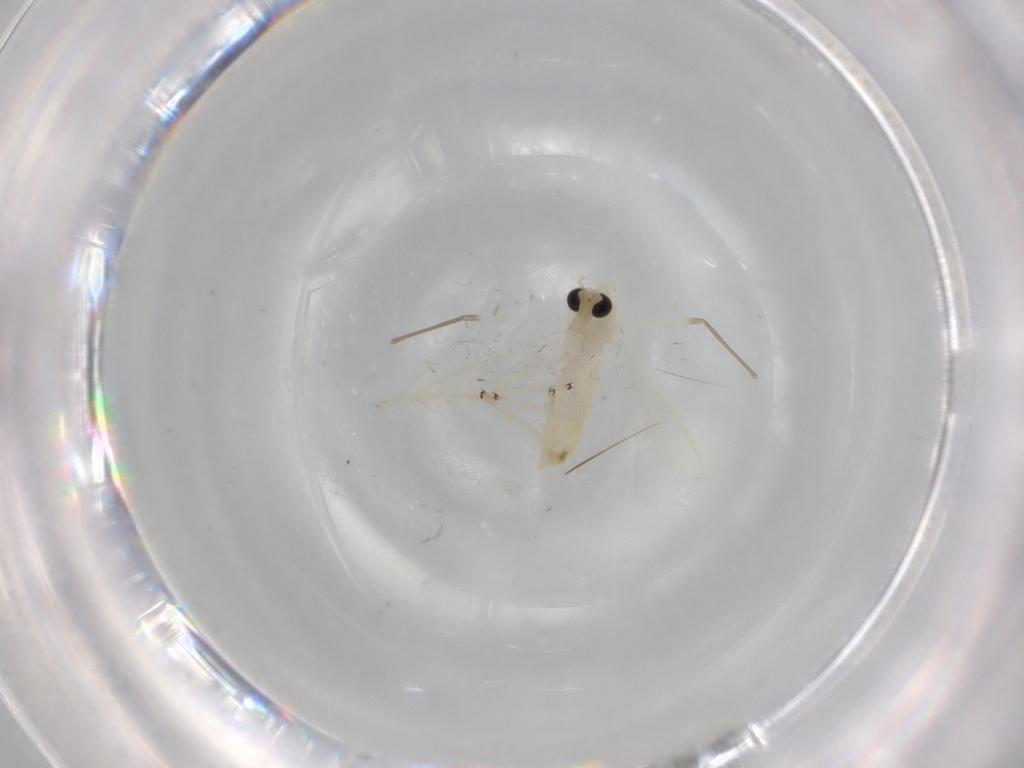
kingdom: Animalia
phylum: Arthropoda
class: Insecta
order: Diptera
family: Chironomidae
